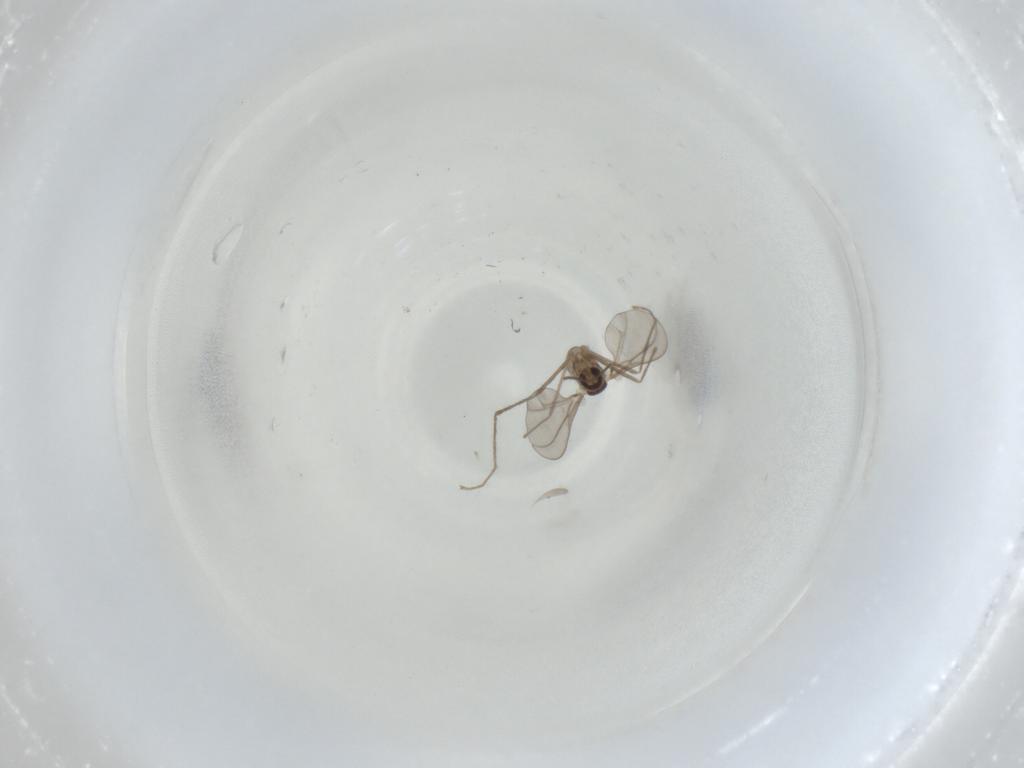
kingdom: Animalia
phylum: Arthropoda
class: Insecta
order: Diptera
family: Cecidomyiidae
